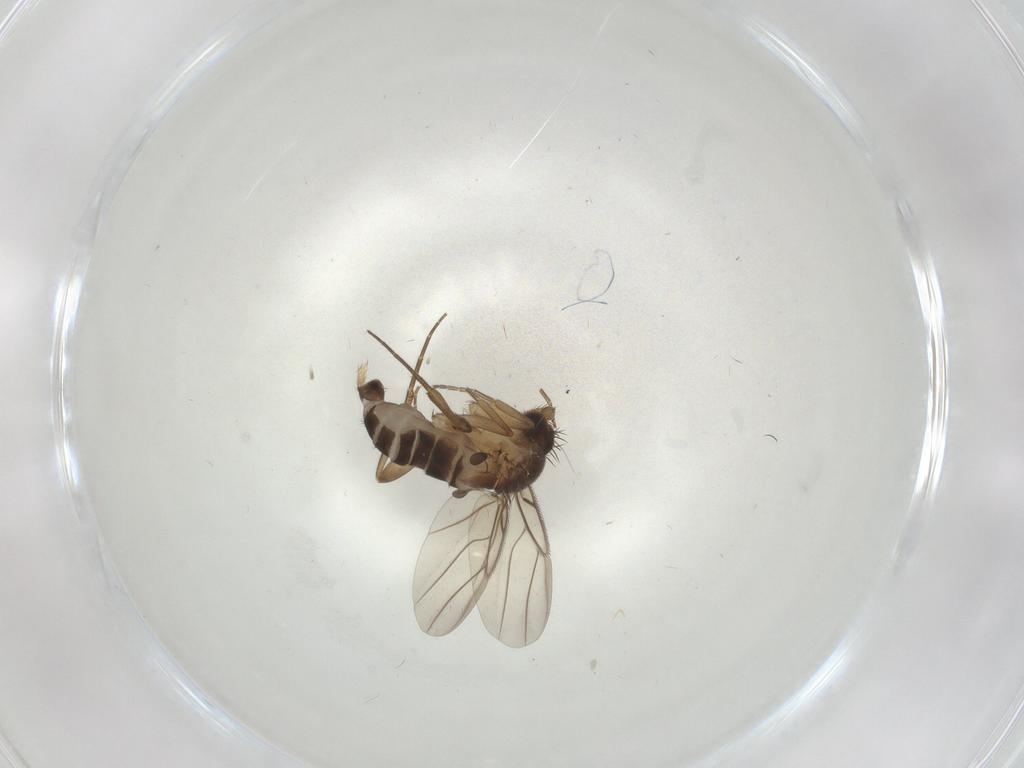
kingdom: Animalia
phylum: Arthropoda
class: Insecta
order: Diptera
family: Phoridae
